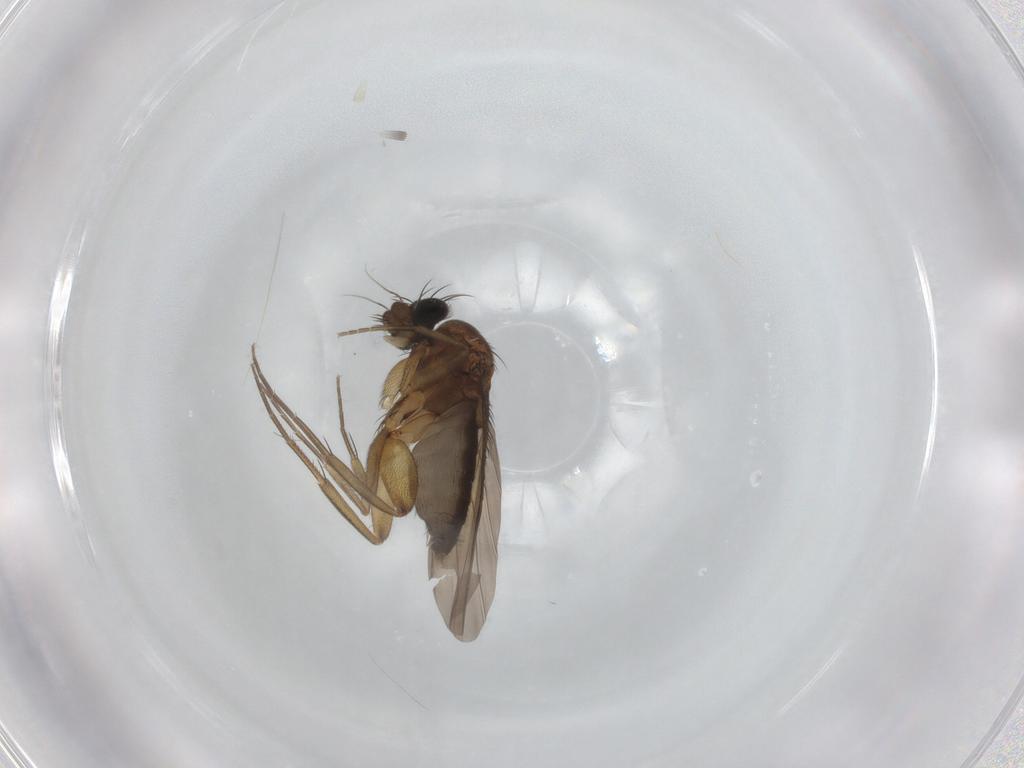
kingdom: Animalia
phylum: Arthropoda
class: Insecta
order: Diptera
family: Phoridae
